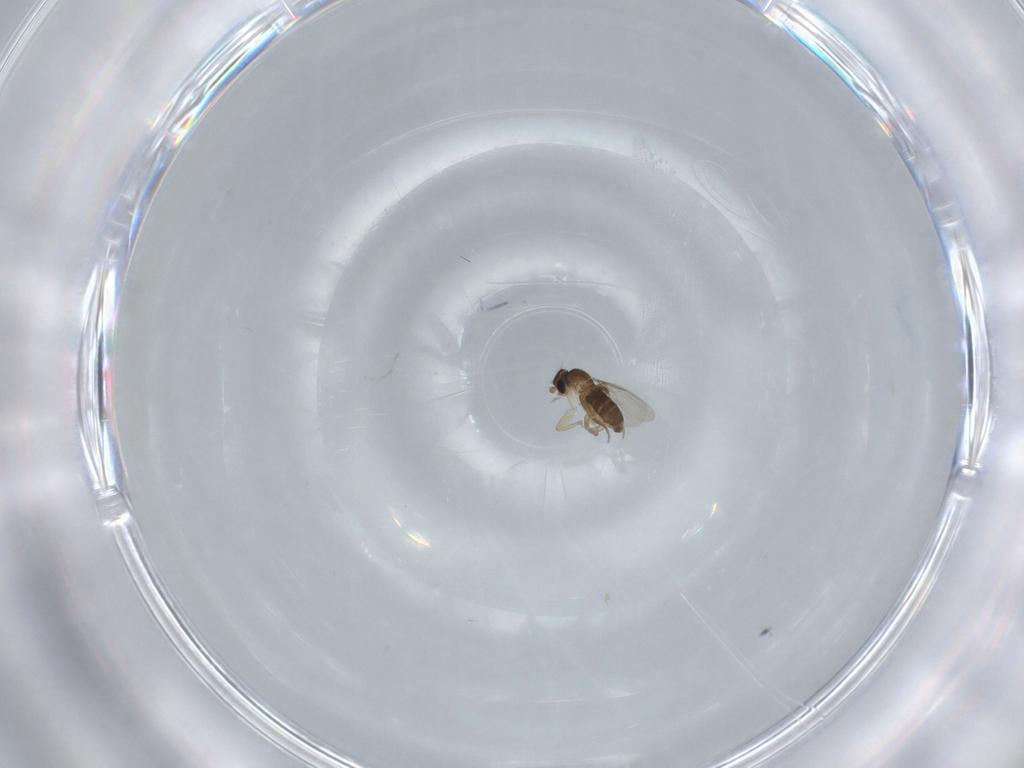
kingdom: Animalia
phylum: Arthropoda
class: Insecta
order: Diptera
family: Phoridae
